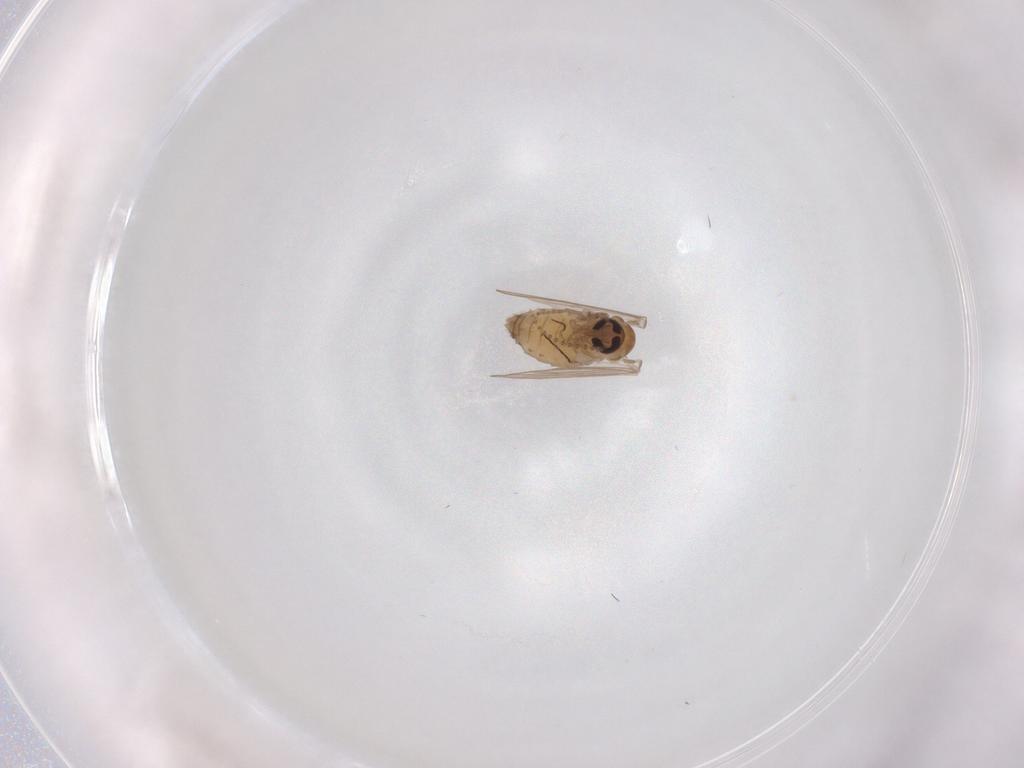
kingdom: Animalia
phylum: Arthropoda
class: Insecta
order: Diptera
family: Psychodidae
